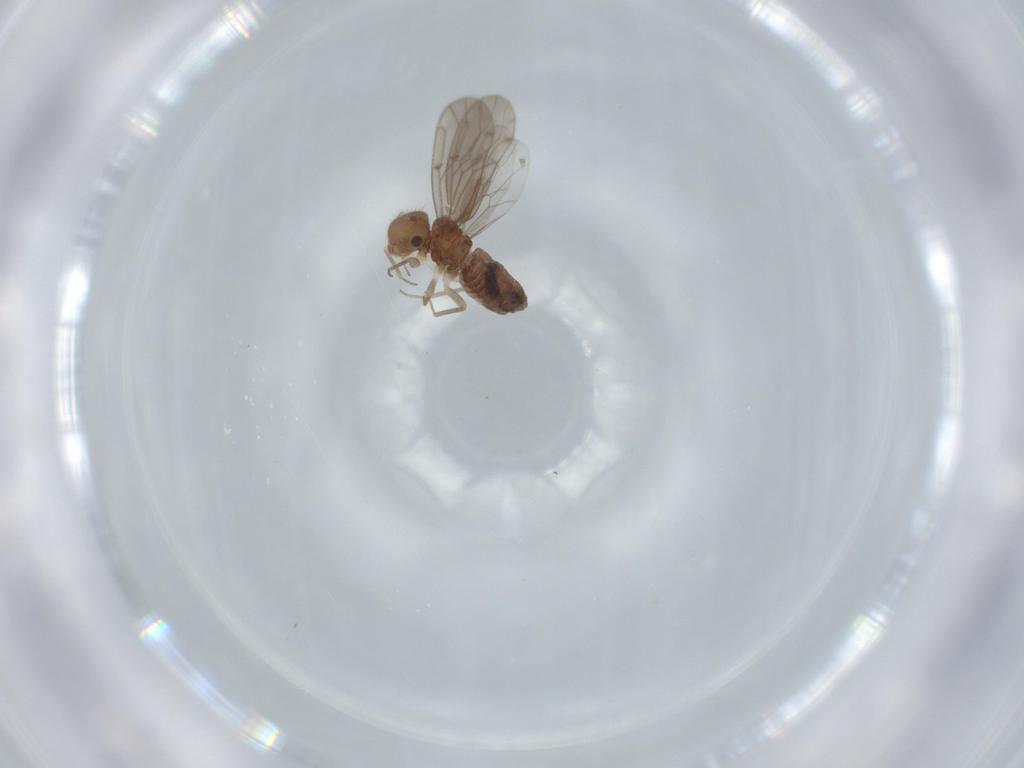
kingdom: Animalia
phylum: Arthropoda
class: Insecta
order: Psocodea
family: Ectopsocidae
